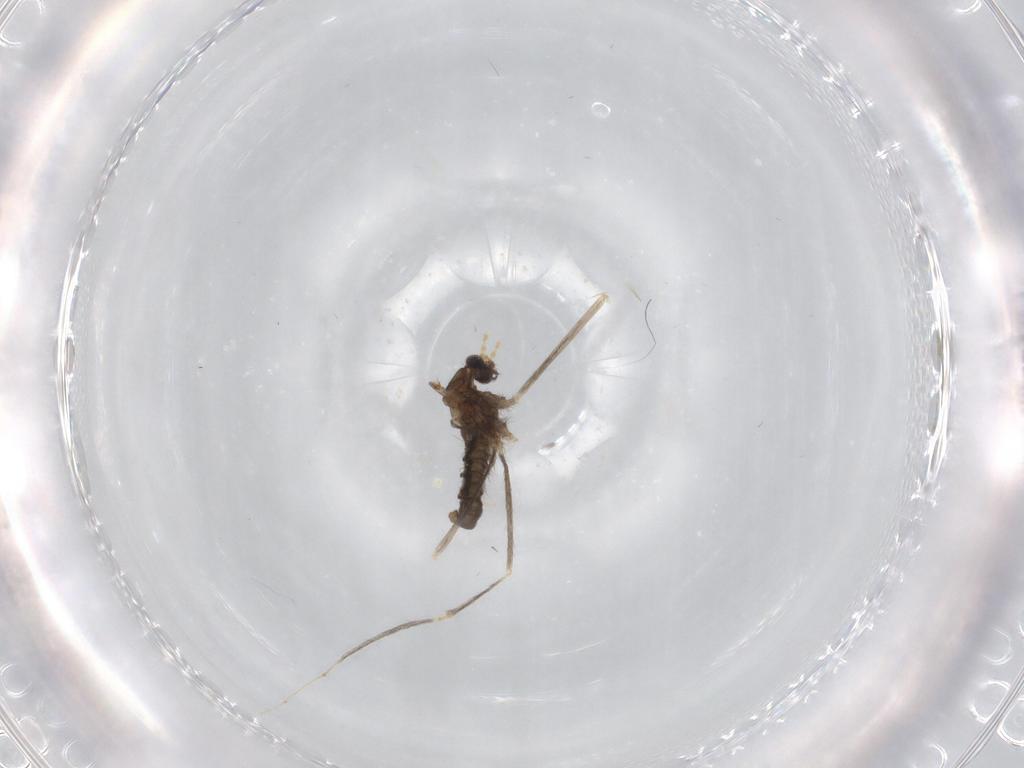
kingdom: Animalia
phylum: Arthropoda
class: Insecta
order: Diptera
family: Cecidomyiidae
